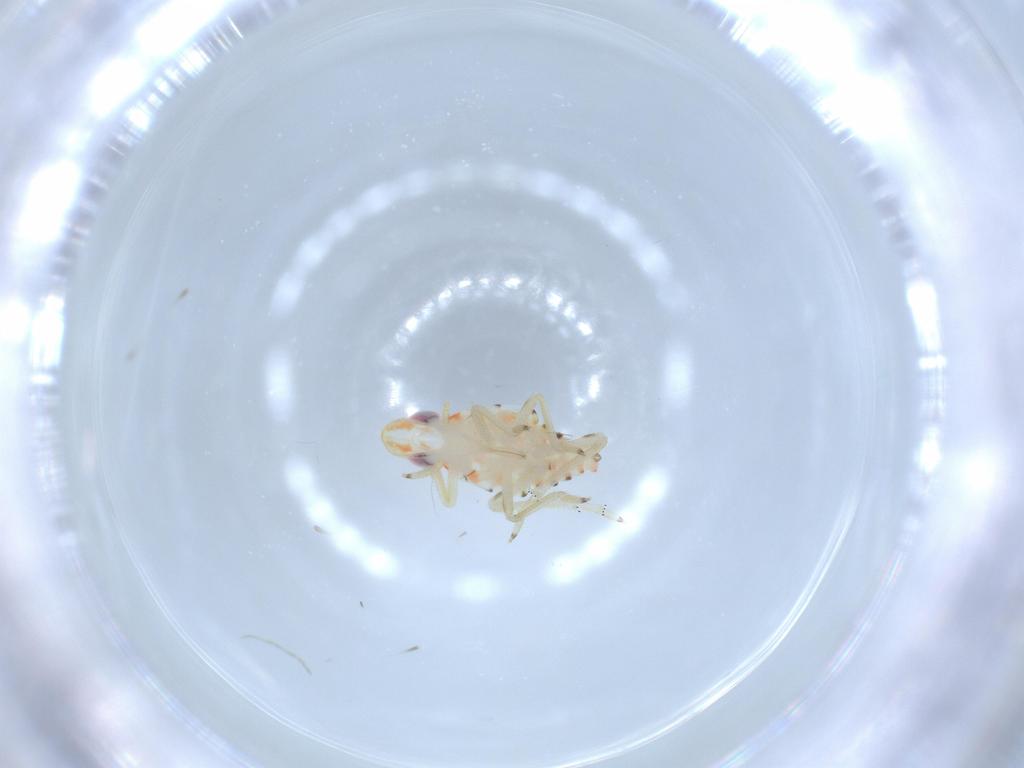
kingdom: Animalia
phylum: Arthropoda
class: Insecta
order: Hemiptera
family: Tropiduchidae
